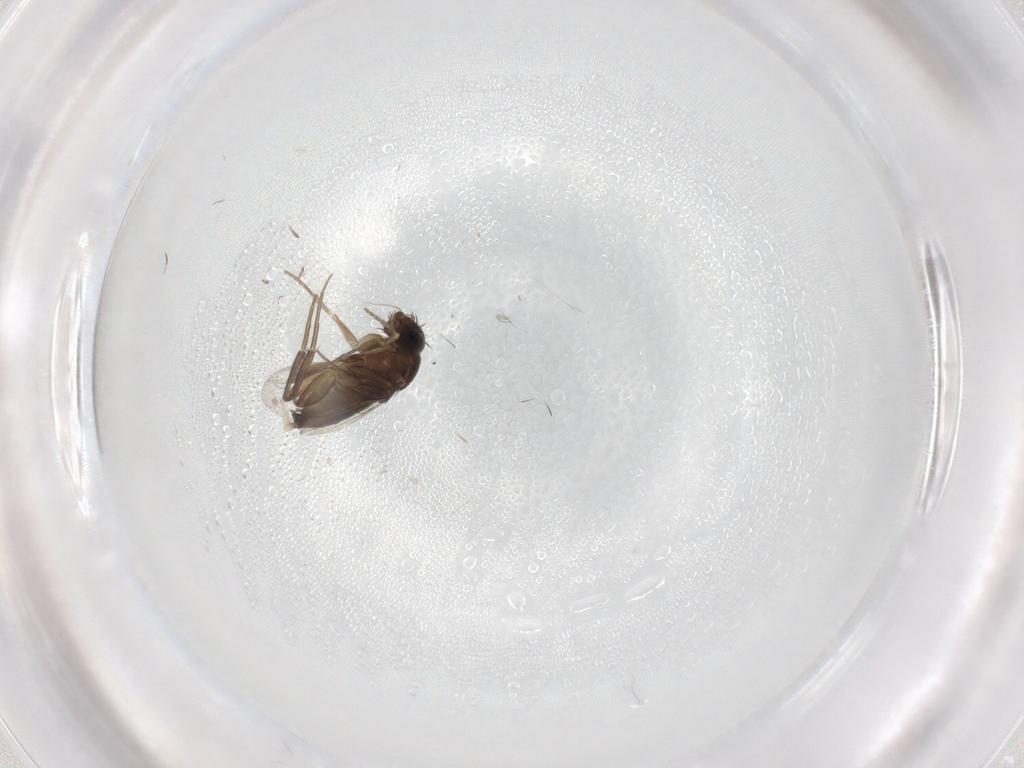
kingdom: Animalia
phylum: Arthropoda
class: Insecta
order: Diptera
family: Phoridae
